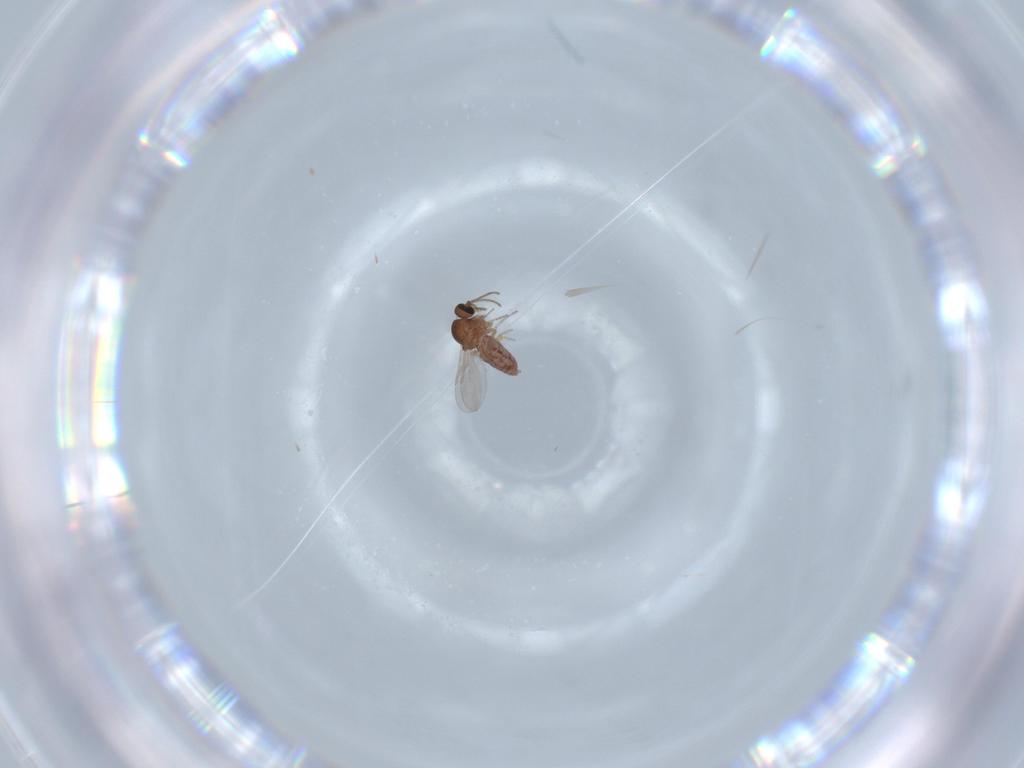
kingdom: Animalia
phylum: Arthropoda
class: Insecta
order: Diptera
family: Ceratopogonidae
